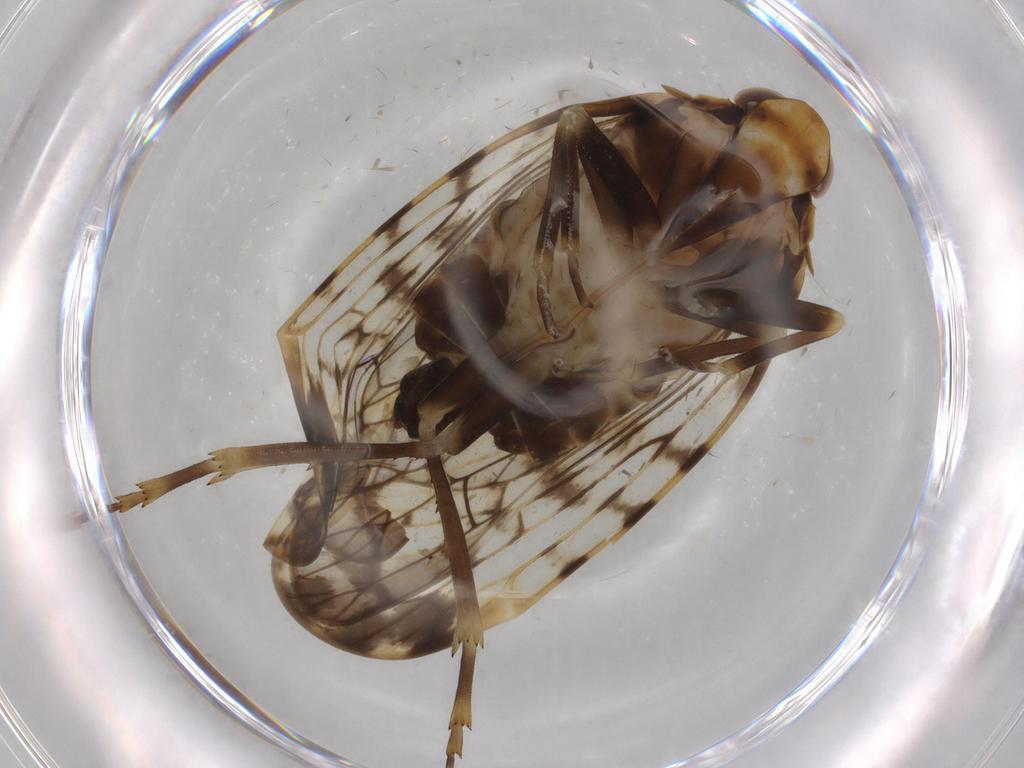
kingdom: Animalia
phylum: Arthropoda
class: Insecta
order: Hemiptera
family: Cixiidae
